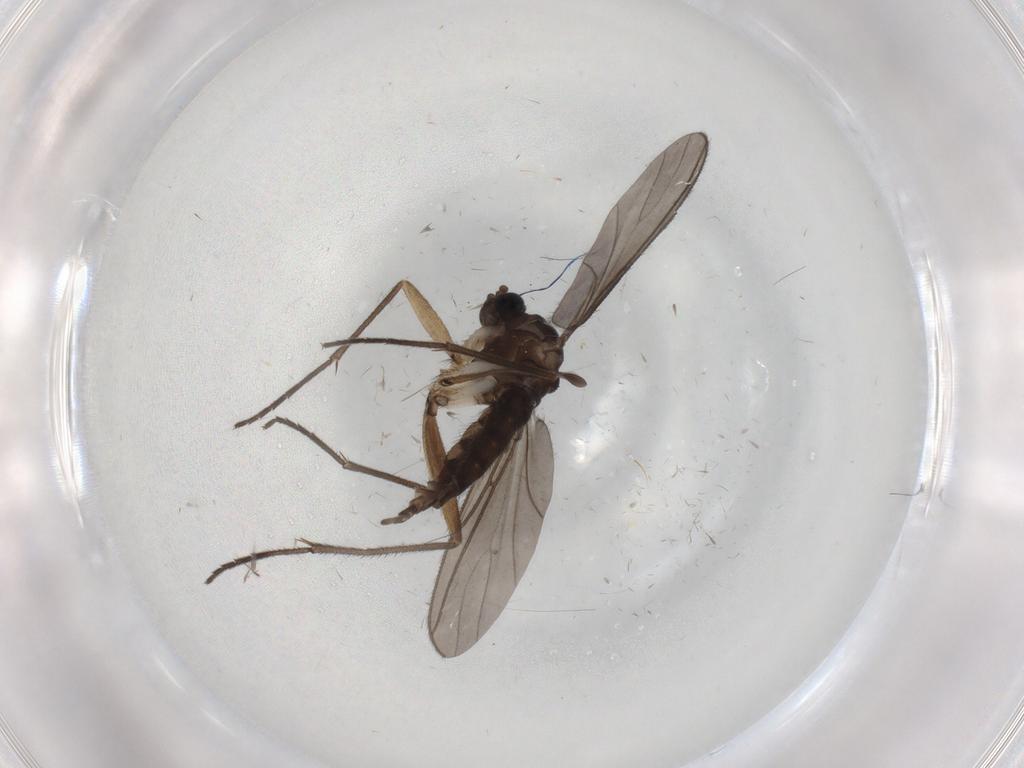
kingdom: Animalia
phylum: Arthropoda
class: Insecta
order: Diptera
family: Sciaridae
